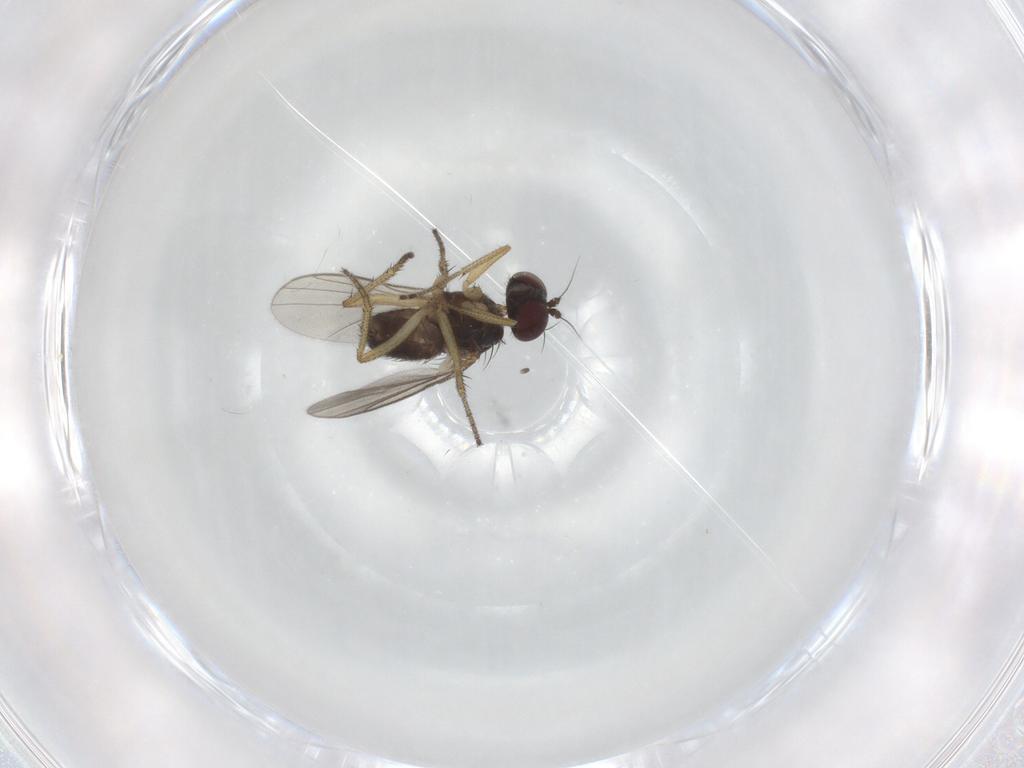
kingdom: Animalia
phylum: Arthropoda
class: Insecta
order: Diptera
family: Dolichopodidae
